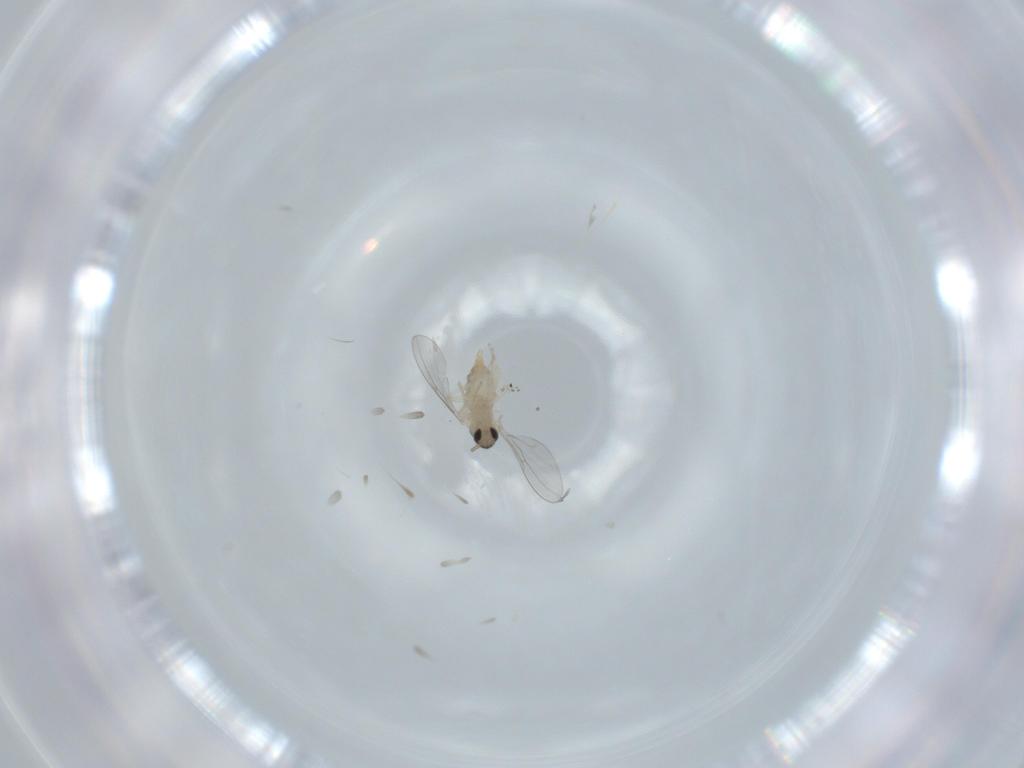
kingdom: Animalia
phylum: Arthropoda
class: Insecta
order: Diptera
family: Cecidomyiidae
